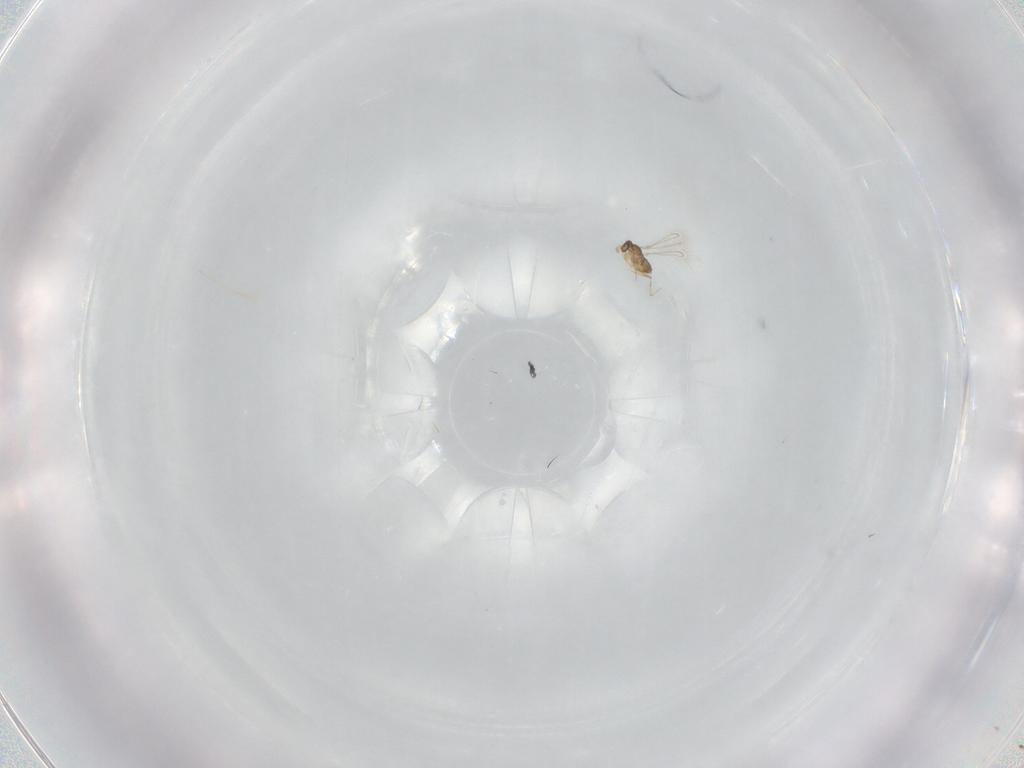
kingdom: Animalia
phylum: Arthropoda
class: Insecta
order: Hymenoptera
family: Mymaridae
